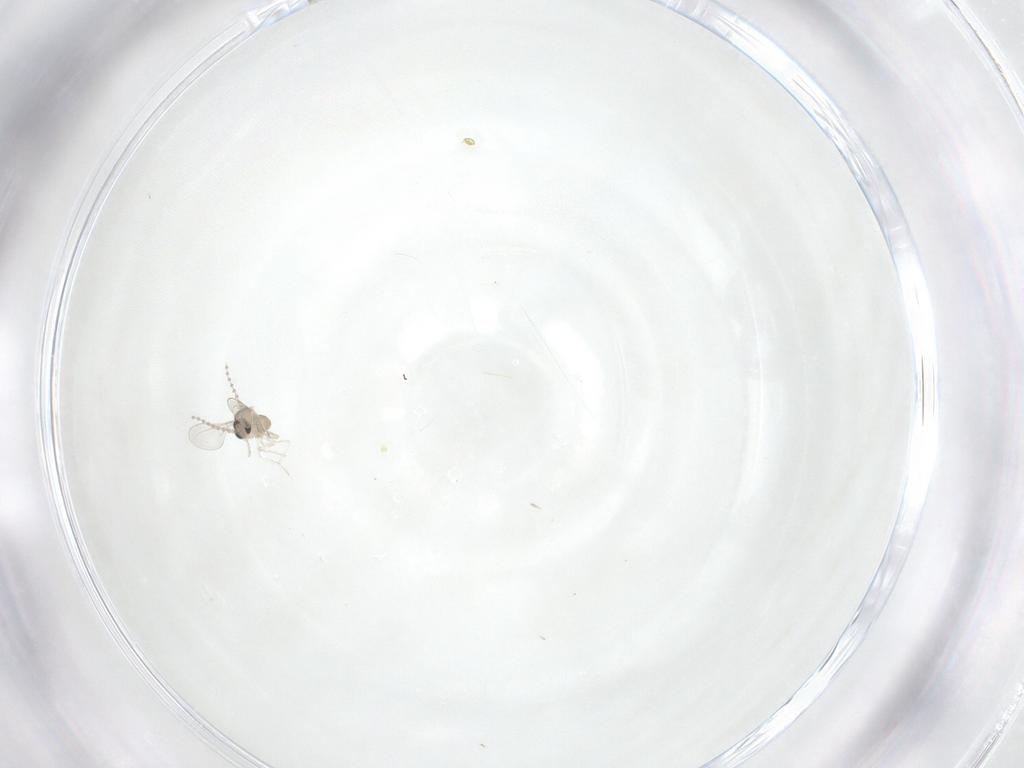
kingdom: Animalia
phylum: Arthropoda
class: Insecta
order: Diptera
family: Cecidomyiidae
